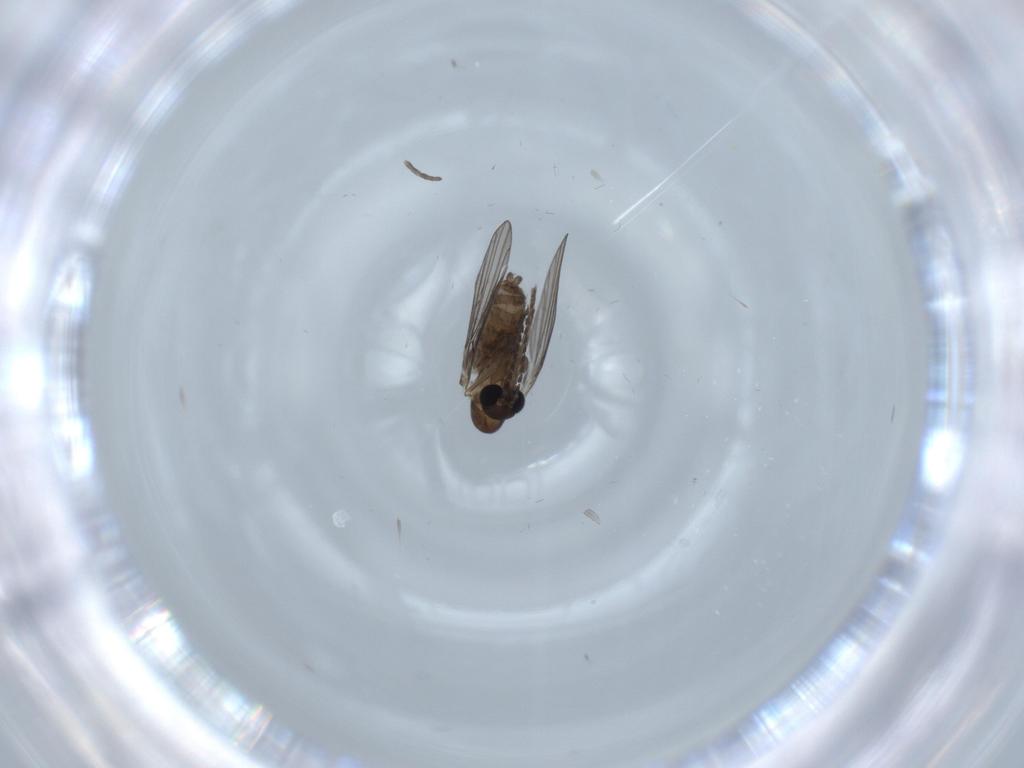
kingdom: Animalia
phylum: Arthropoda
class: Insecta
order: Diptera
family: Psychodidae
